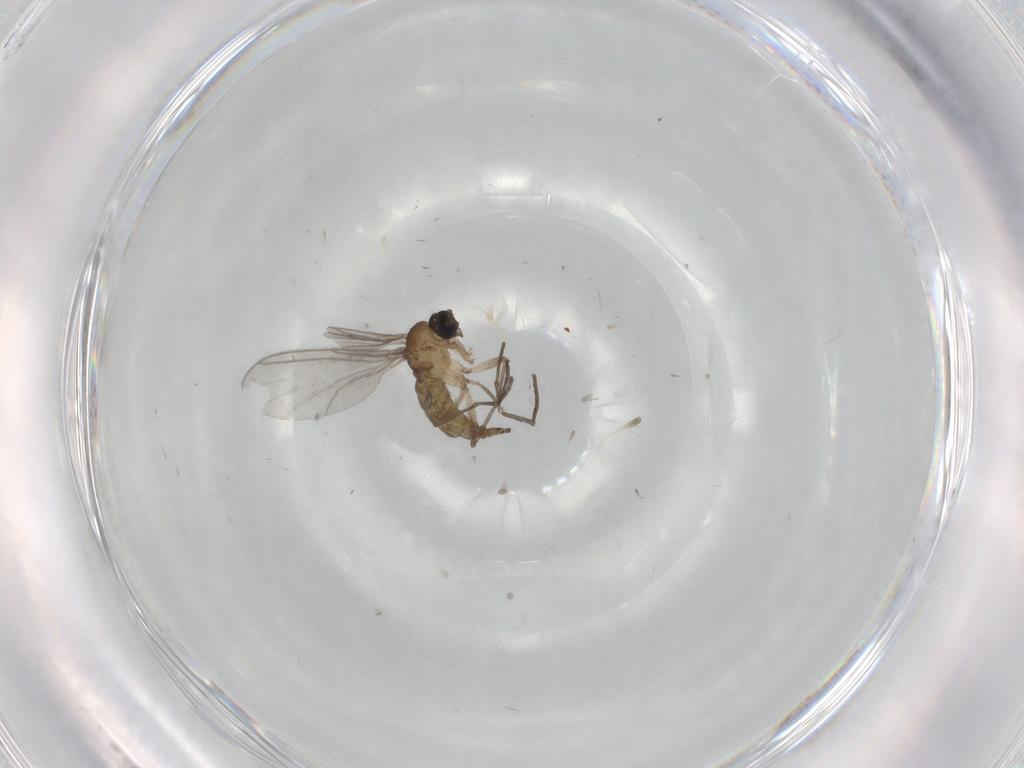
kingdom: Animalia
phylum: Arthropoda
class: Insecta
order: Diptera
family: Sciaridae
